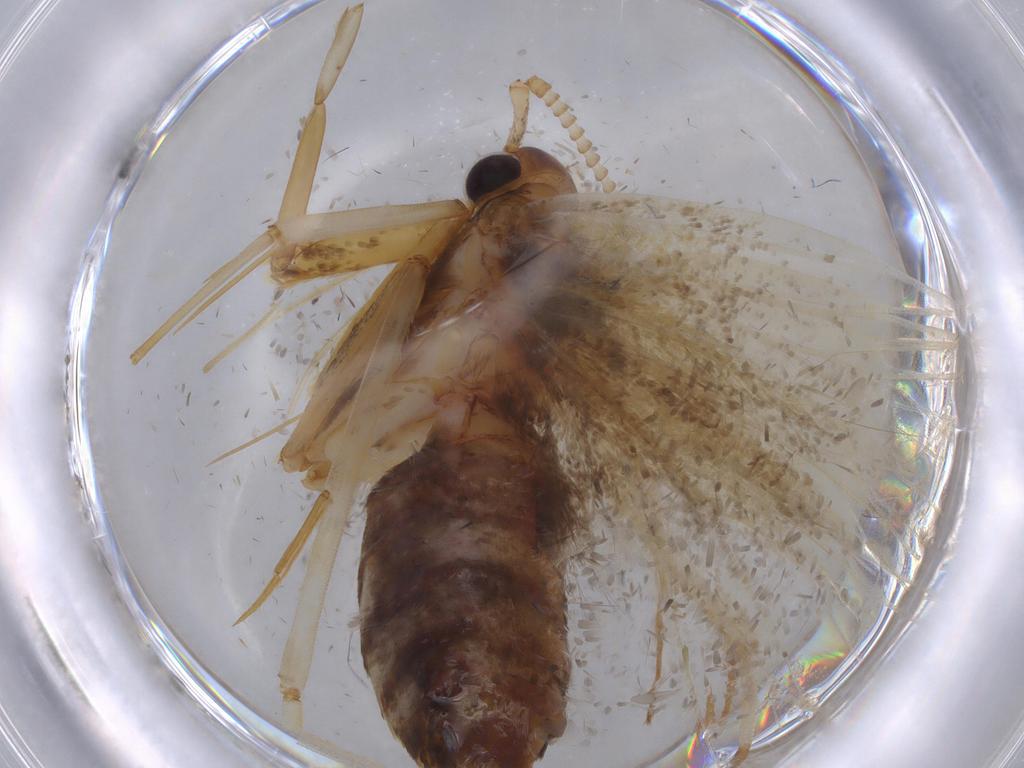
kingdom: Animalia
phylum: Arthropoda
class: Insecta
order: Lepidoptera
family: Lecithoceridae
